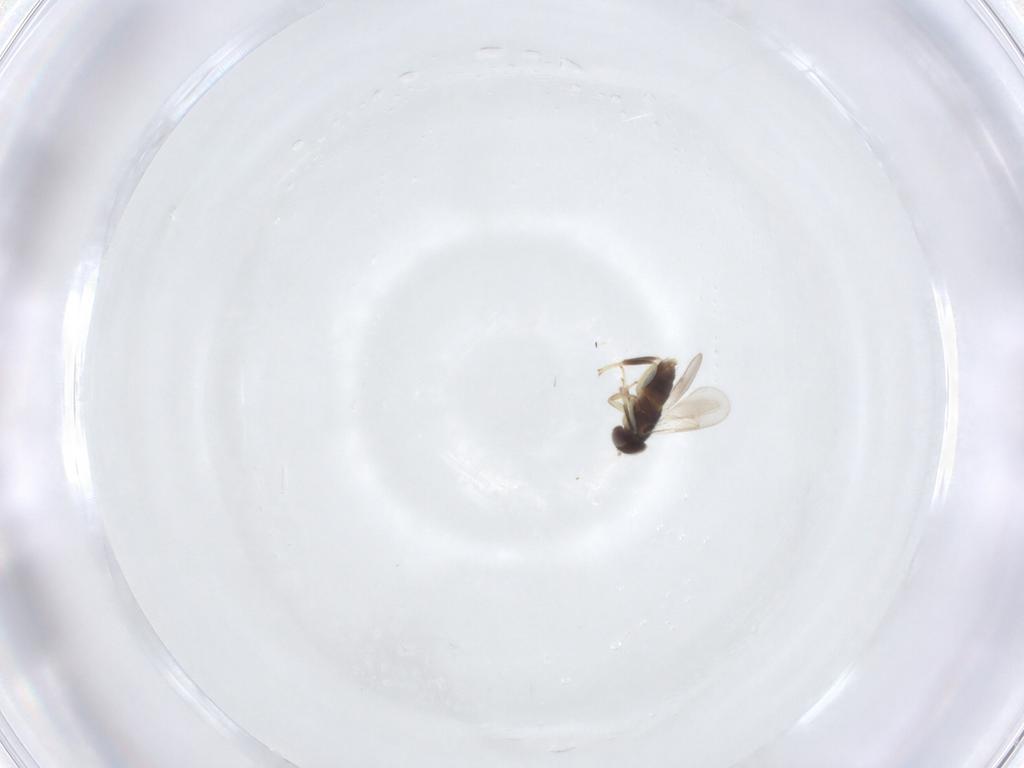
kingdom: Animalia
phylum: Arthropoda
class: Insecta
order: Hymenoptera
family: Aphelinidae
